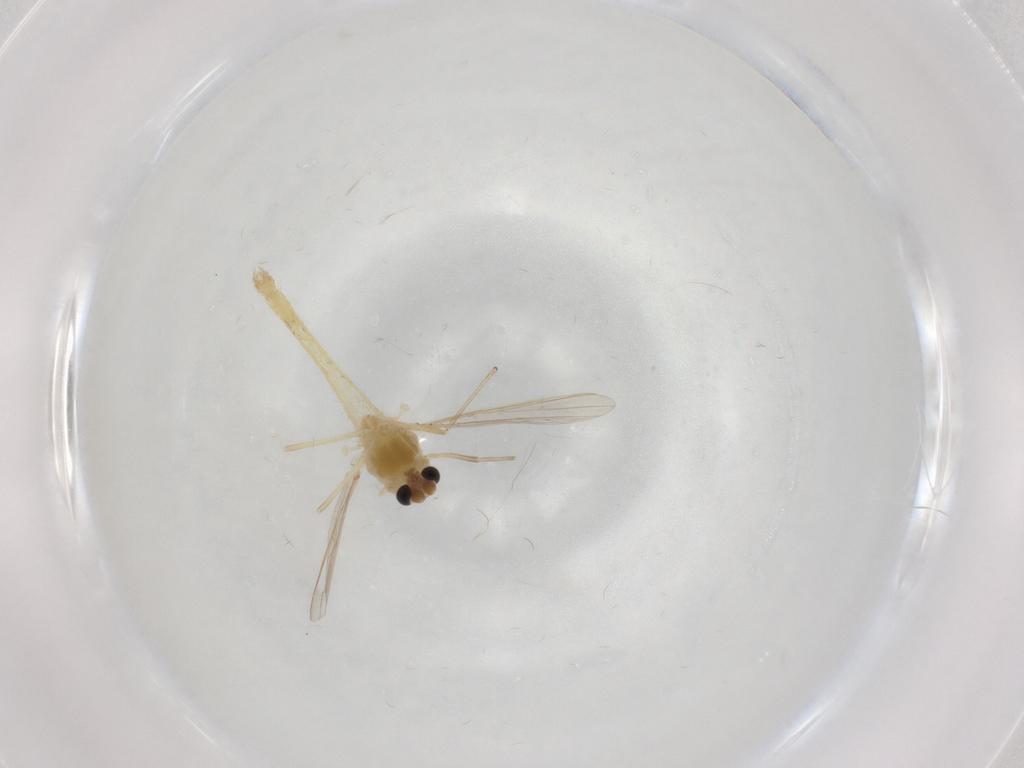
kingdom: Animalia
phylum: Arthropoda
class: Insecta
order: Diptera
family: Chironomidae
